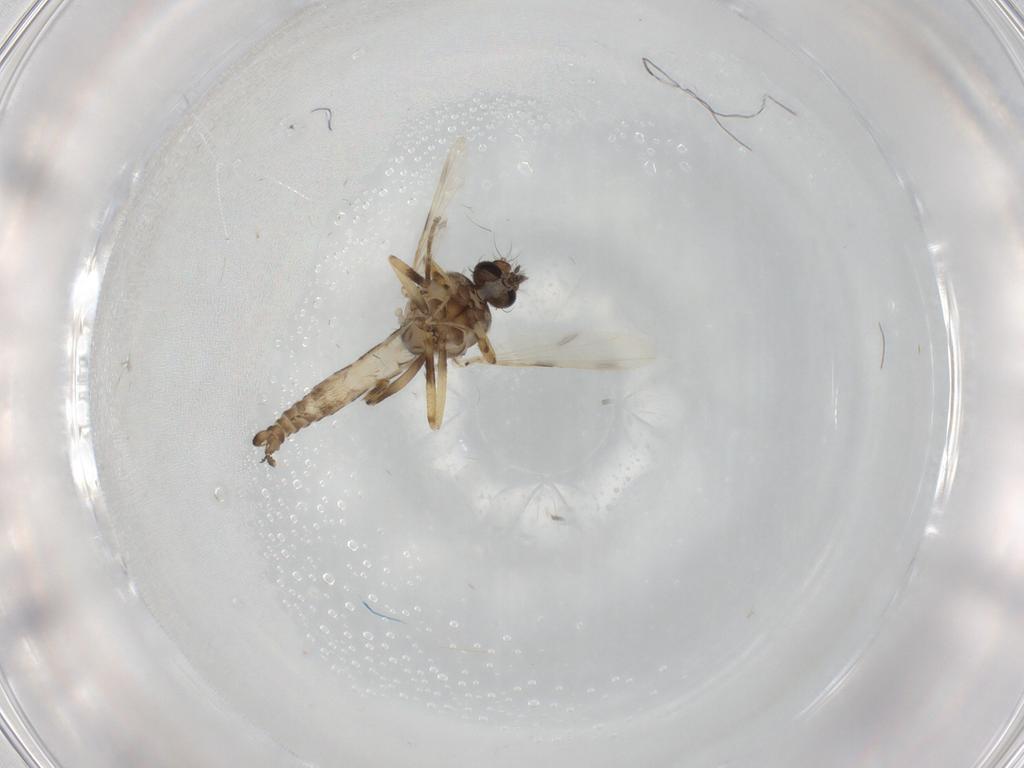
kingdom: Animalia
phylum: Arthropoda
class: Insecta
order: Diptera
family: Ceratopogonidae
